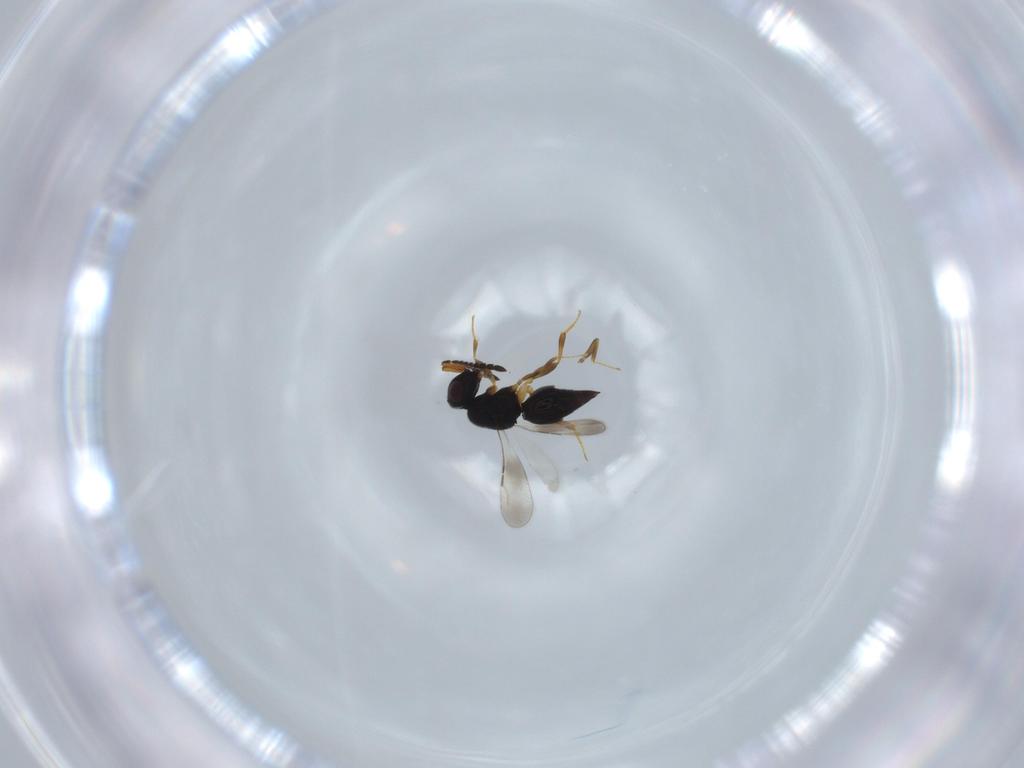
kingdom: Animalia
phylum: Arthropoda
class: Insecta
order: Hymenoptera
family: Ceraphronidae
